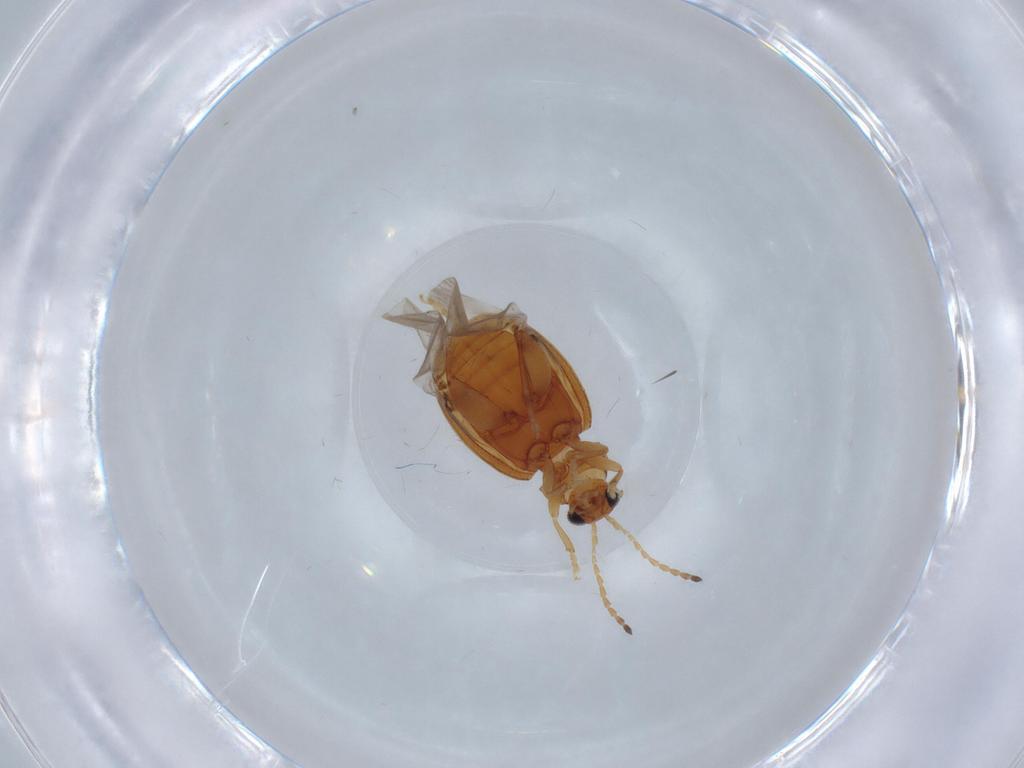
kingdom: Animalia
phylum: Arthropoda
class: Insecta
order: Coleoptera
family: Chrysomelidae
